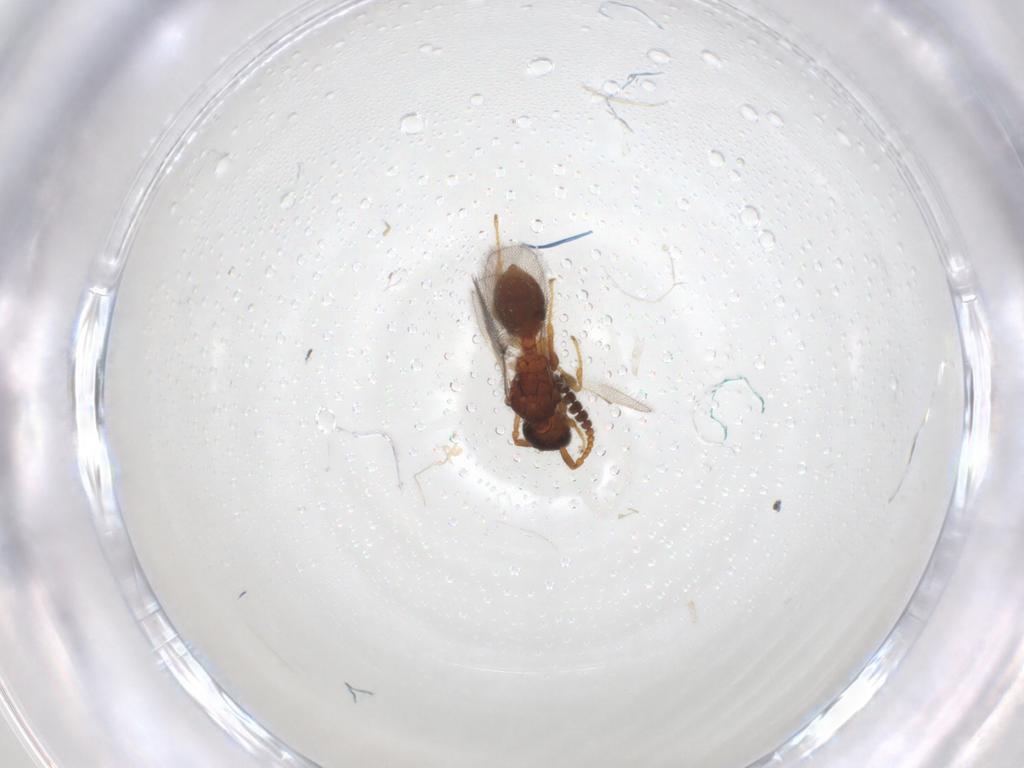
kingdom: Animalia
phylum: Arthropoda
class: Insecta
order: Hymenoptera
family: Diapriidae
